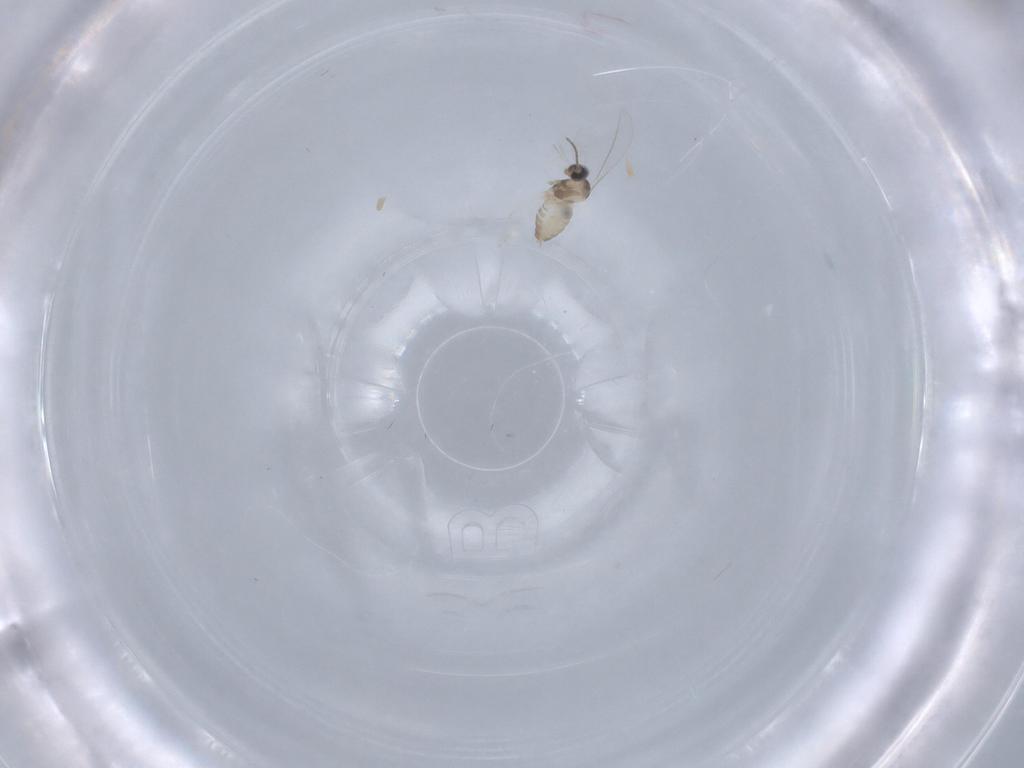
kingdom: Animalia
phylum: Arthropoda
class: Insecta
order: Diptera
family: Cecidomyiidae
